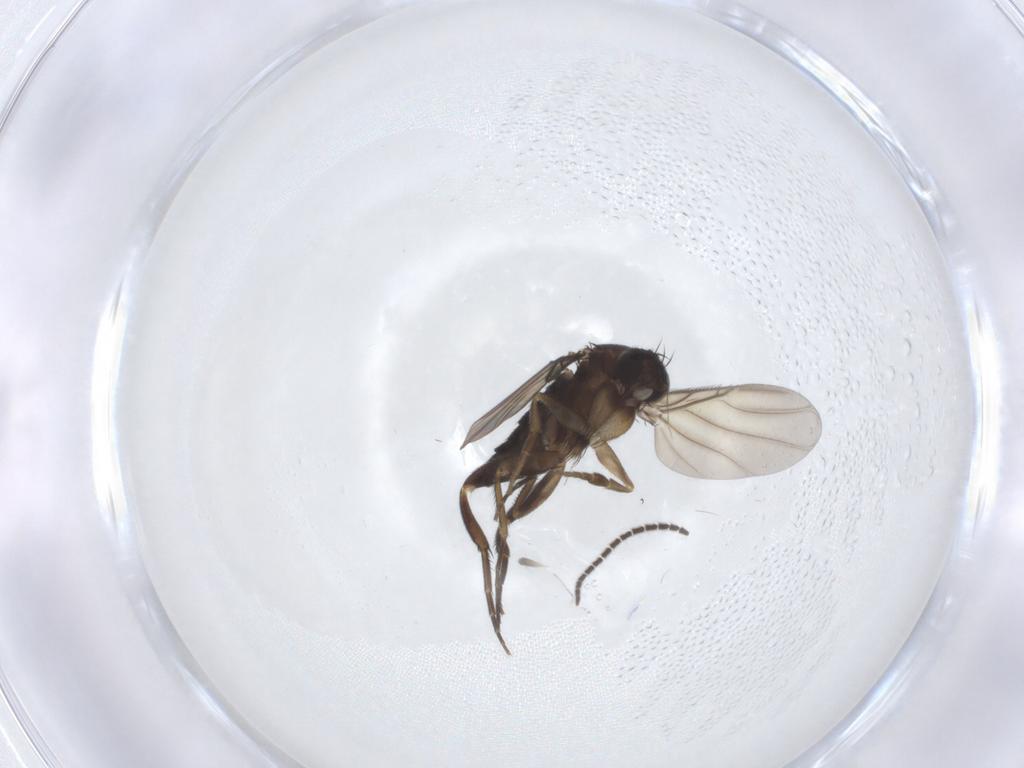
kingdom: Animalia
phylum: Arthropoda
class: Insecta
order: Diptera
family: Phoridae
